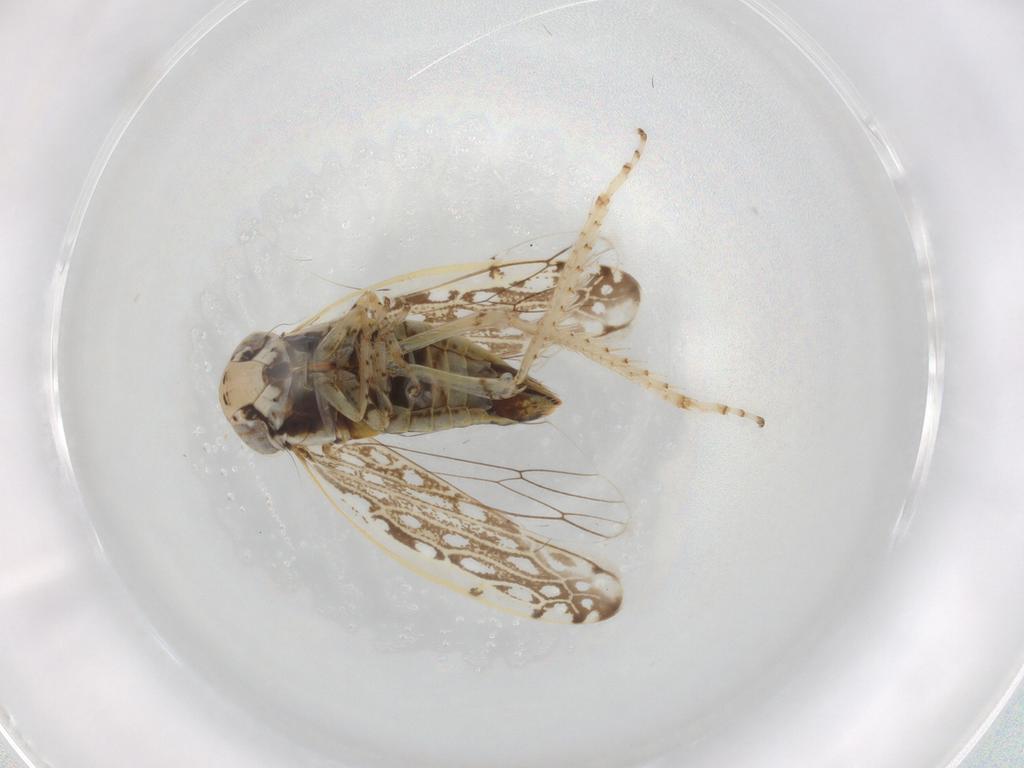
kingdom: Animalia
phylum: Arthropoda
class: Insecta
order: Hemiptera
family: Cicadellidae
